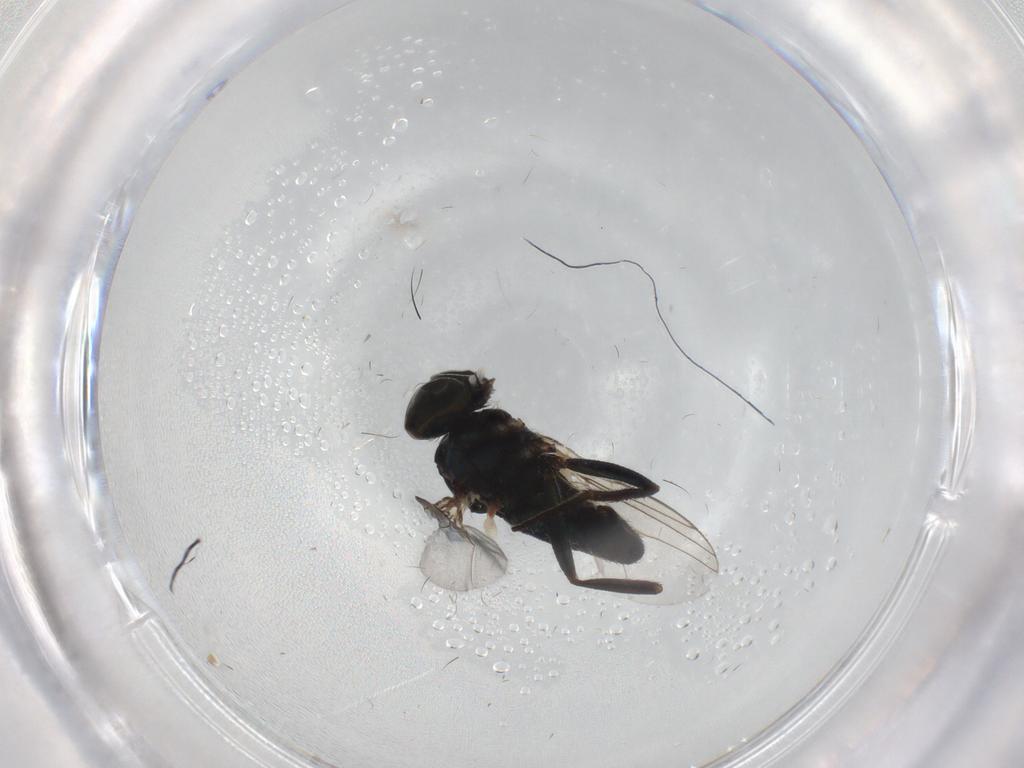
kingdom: Animalia
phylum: Arthropoda
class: Insecta
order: Diptera
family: Dolichopodidae
